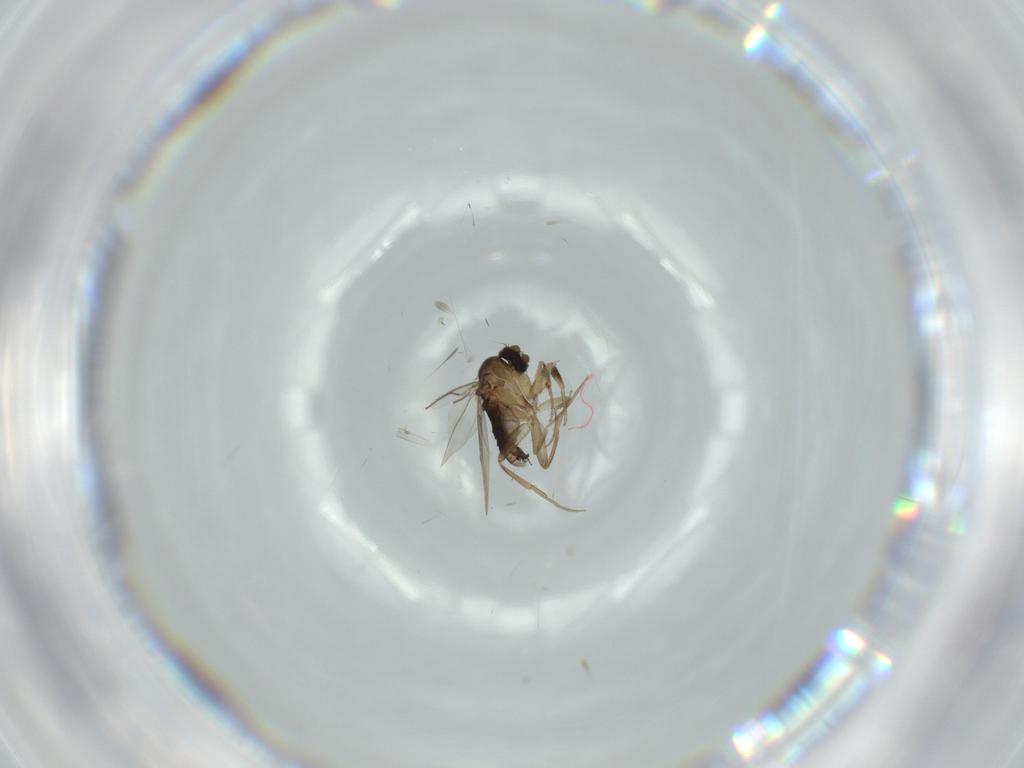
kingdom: Animalia
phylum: Arthropoda
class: Insecta
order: Diptera
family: Phoridae
